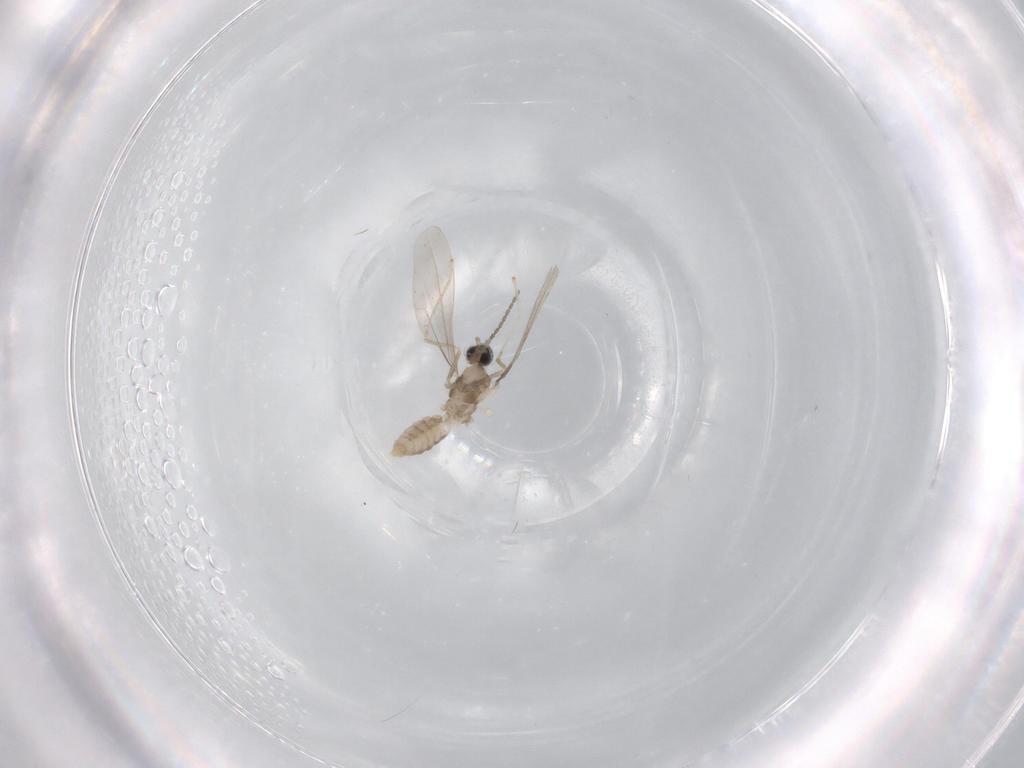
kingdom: Animalia
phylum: Arthropoda
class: Insecta
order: Diptera
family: Cecidomyiidae
